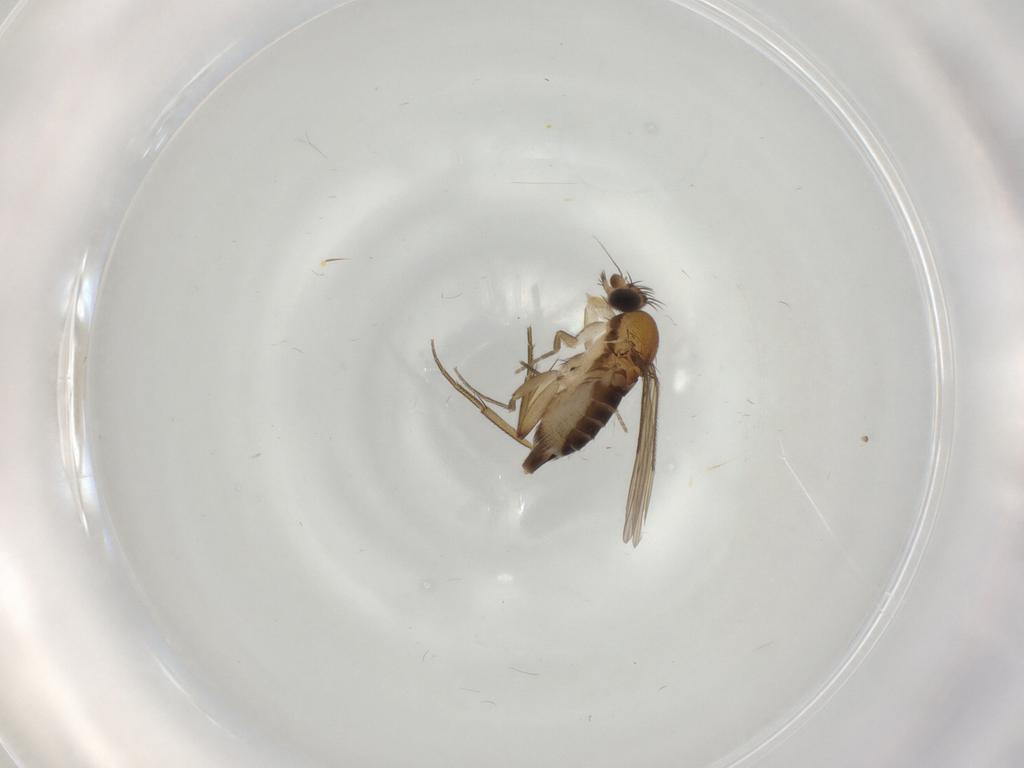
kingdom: Animalia
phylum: Arthropoda
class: Insecta
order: Diptera
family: Phoridae
